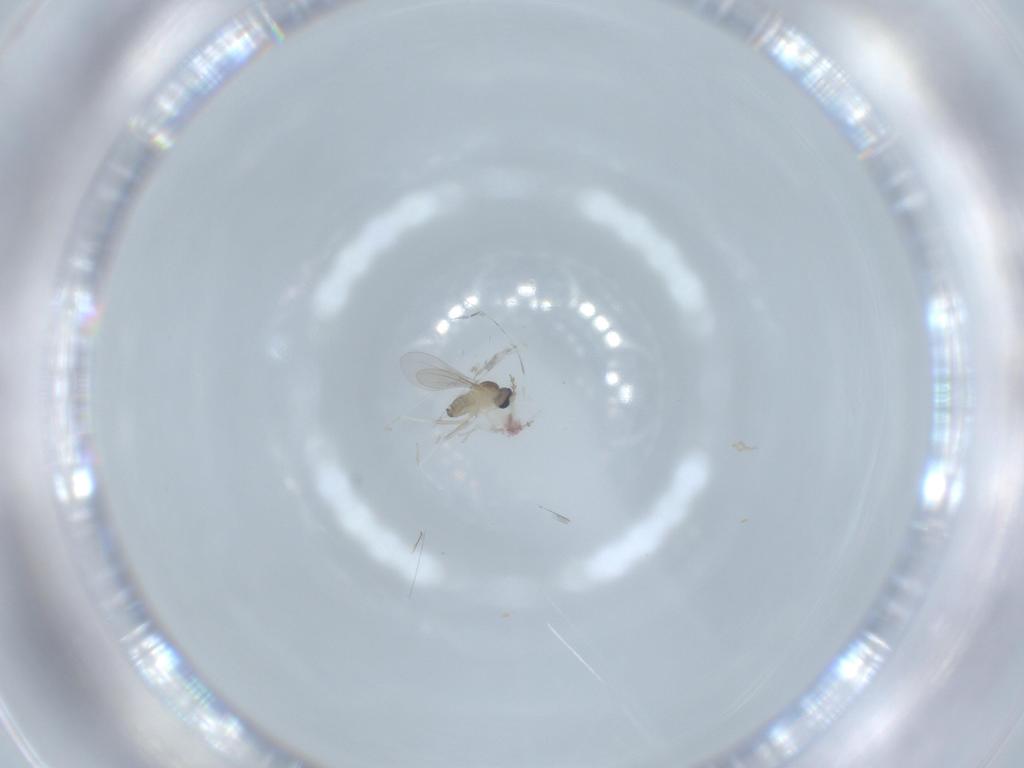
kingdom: Animalia
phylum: Arthropoda
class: Insecta
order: Diptera
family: Cecidomyiidae
